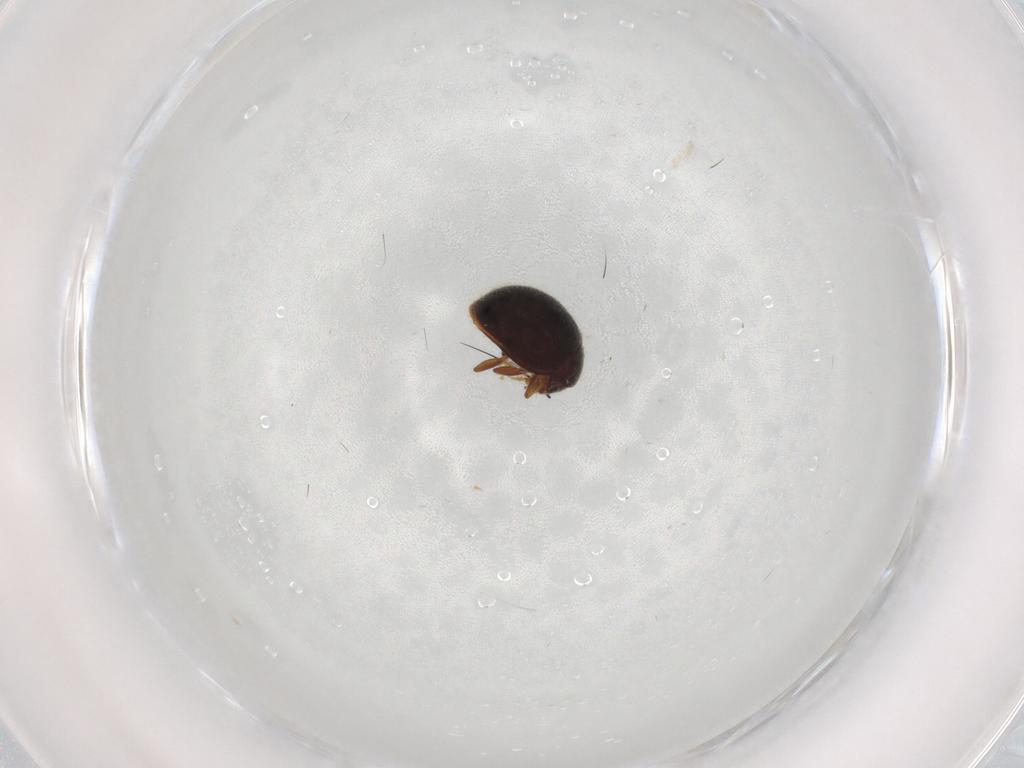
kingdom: Animalia
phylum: Arthropoda
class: Insecta
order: Coleoptera
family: Coccinellidae
